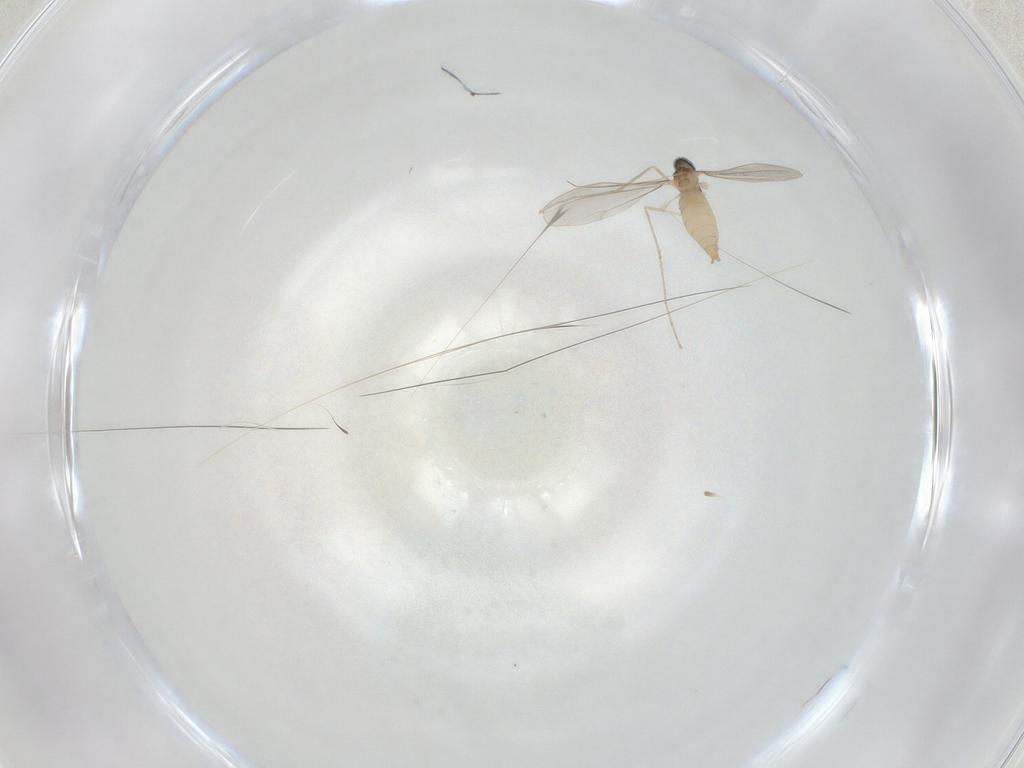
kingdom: Animalia
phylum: Arthropoda
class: Insecta
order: Diptera
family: Cecidomyiidae
